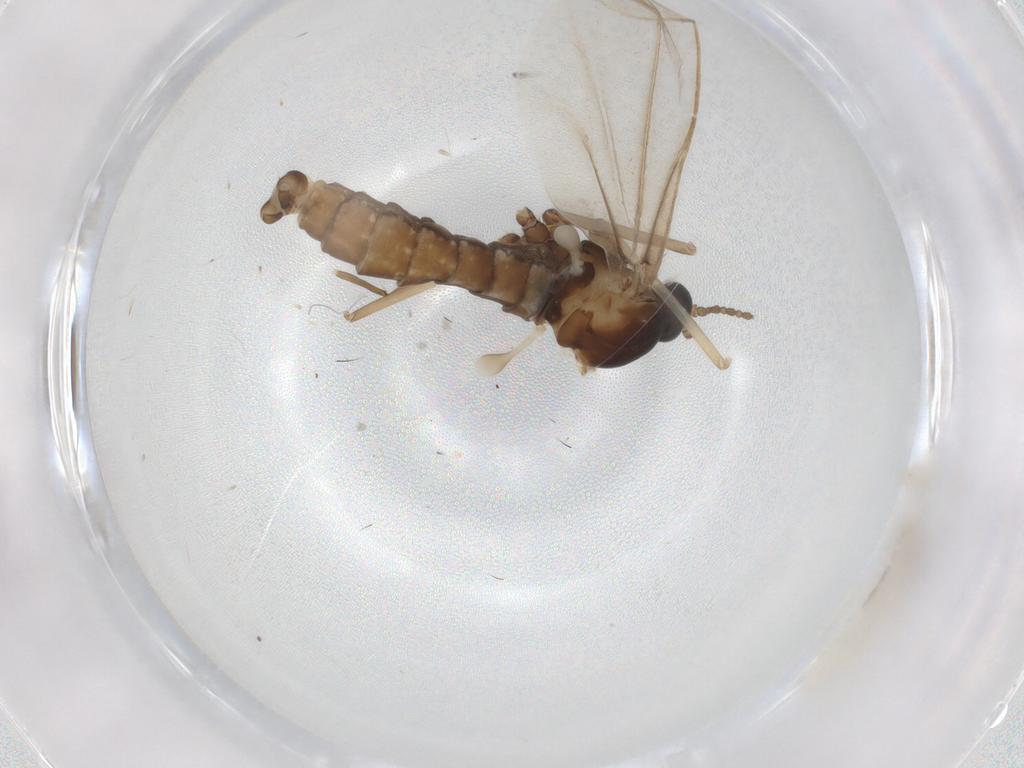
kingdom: Animalia
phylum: Arthropoda
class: Insecta
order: Diptera
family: Cecidomyiidae
